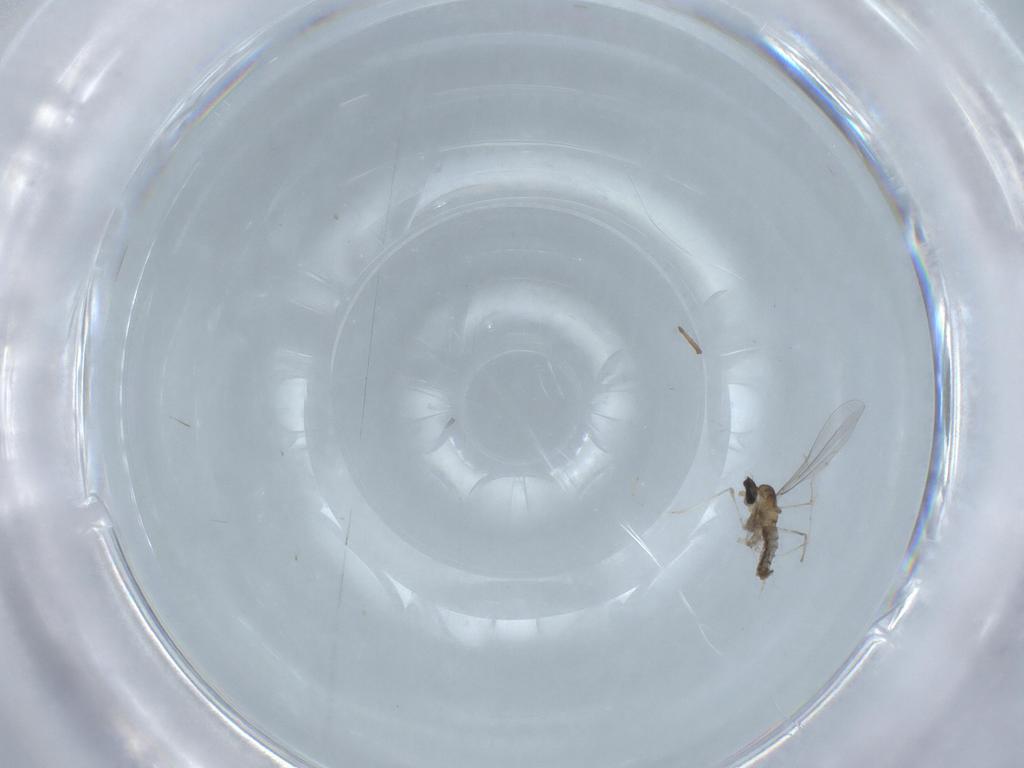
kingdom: Animalia
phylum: Arthropoda
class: Insecta
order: Diptera
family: Cecidomyiidae
